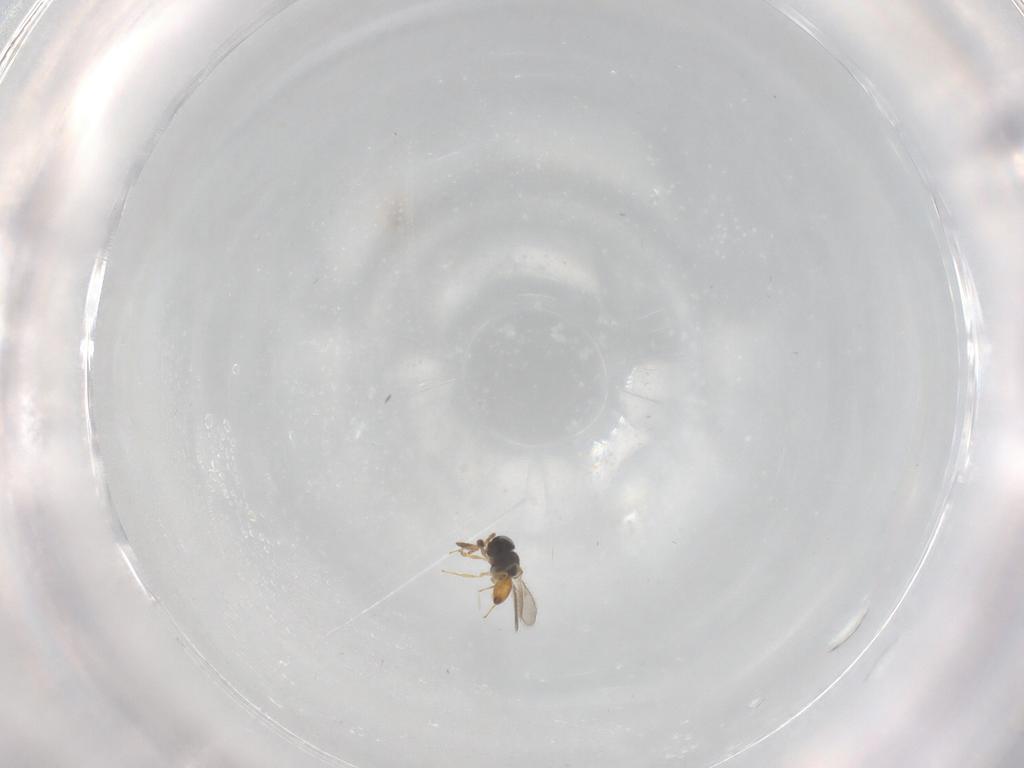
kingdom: Animalia
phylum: Arthropoda
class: Insecta
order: Hymenoptera
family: Scelionidae
